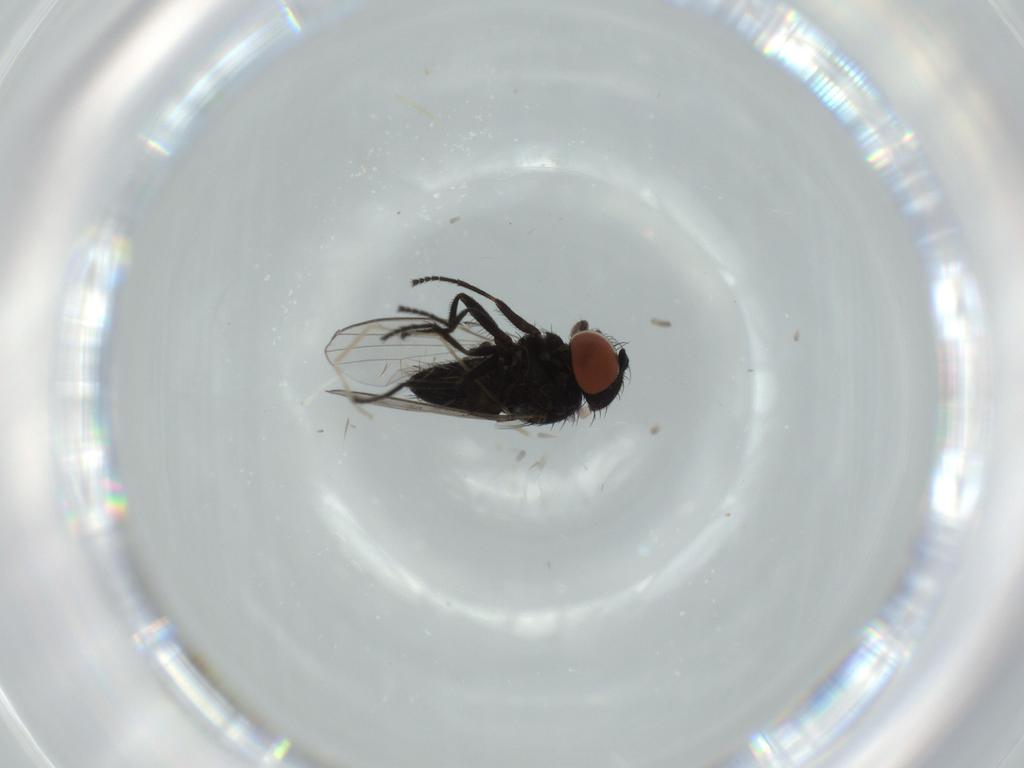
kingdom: Animalia
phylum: Arthropoda
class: Insecta
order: Diptera
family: Milichiidae
